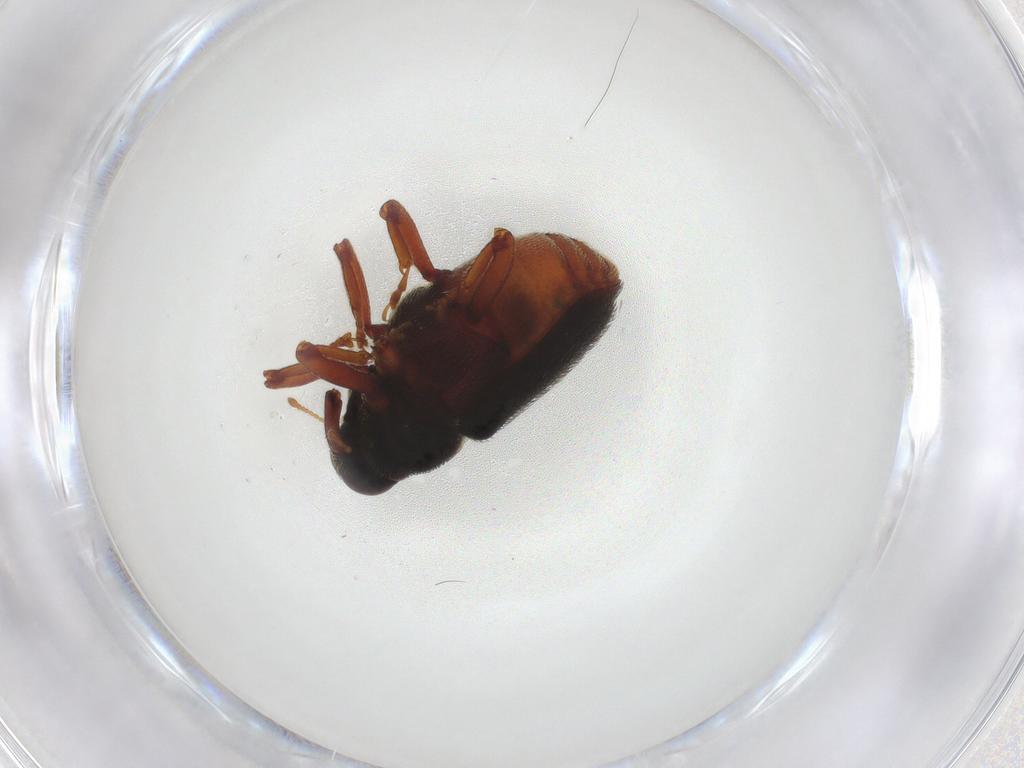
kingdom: Animalia
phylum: Arthropoda
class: Insecta
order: Coleoptera
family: Curculionidae
